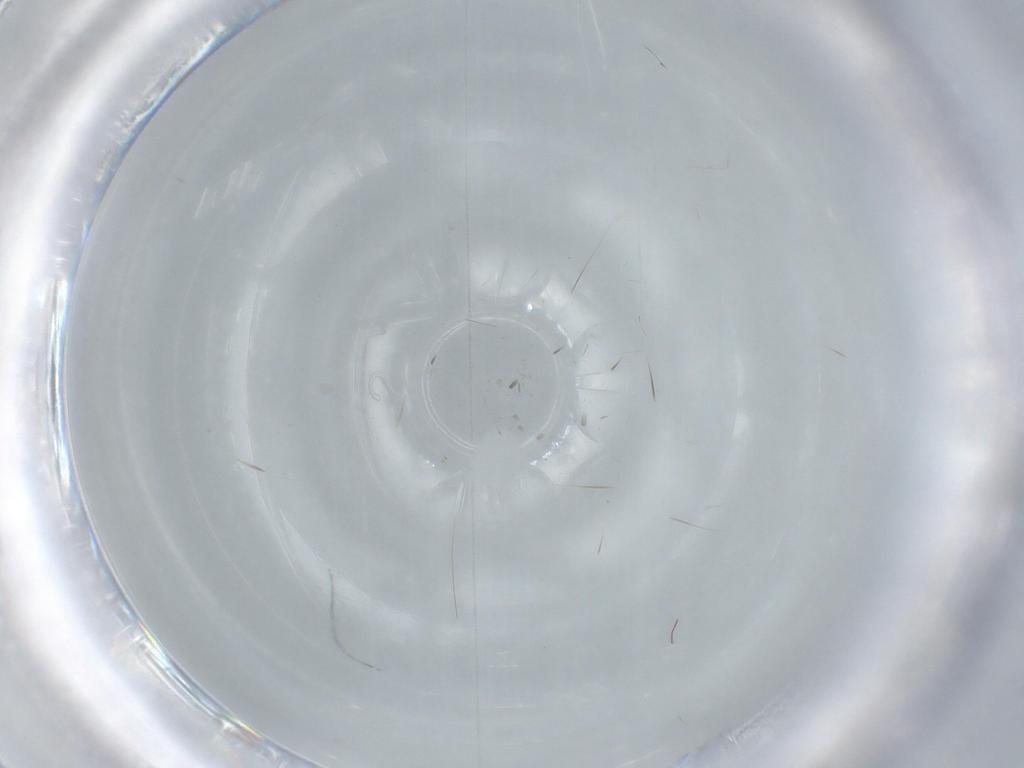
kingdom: Animalia
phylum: Arthropoda
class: Insecta
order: Diptera
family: Milichiidae
